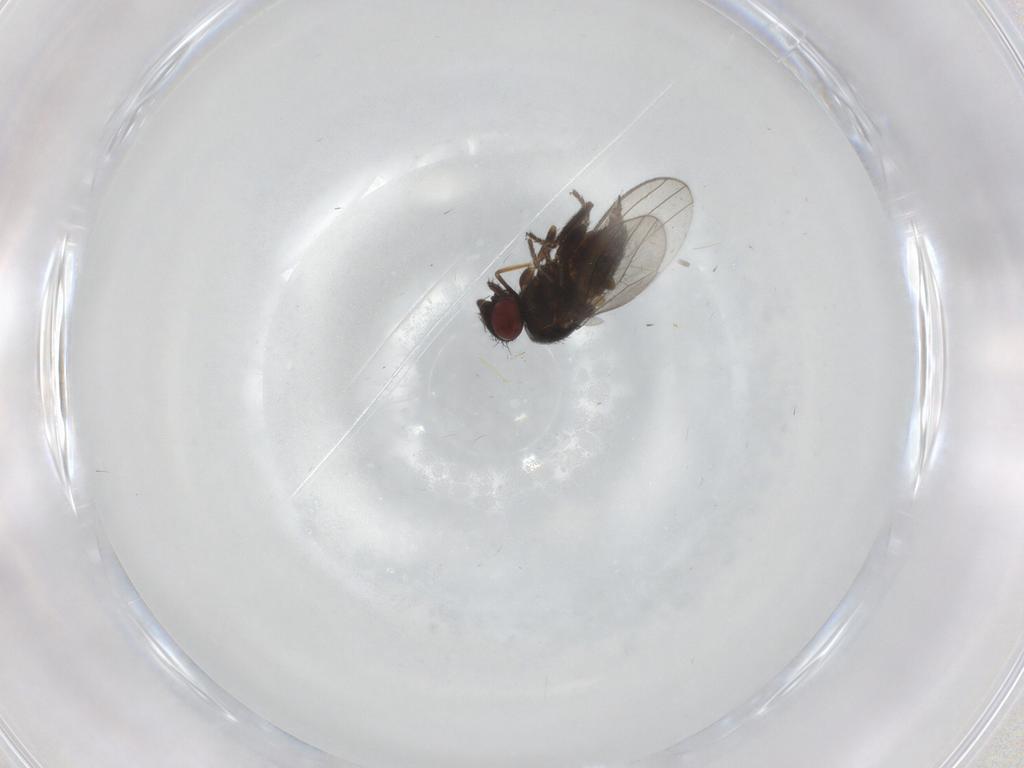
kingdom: Animalia
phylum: Arthropoda
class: Insecta
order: Diptera
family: Milichiidae
